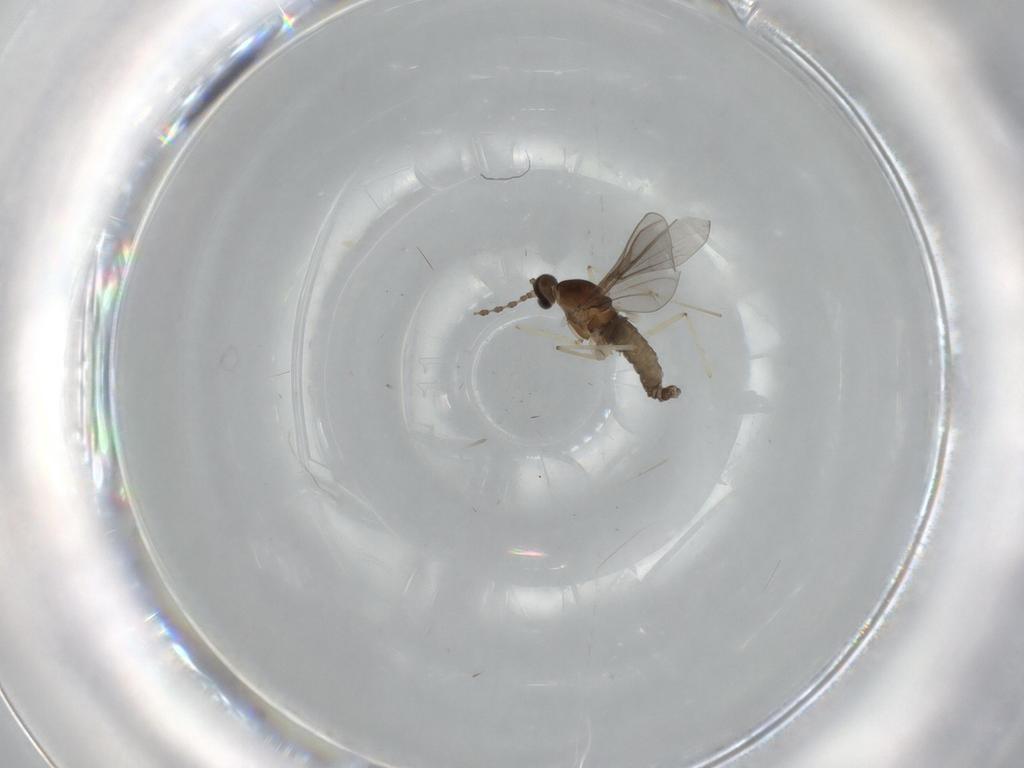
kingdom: Animalia
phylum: Arthropoda
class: Insecta
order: Diptera
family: Cecidomyiidae
